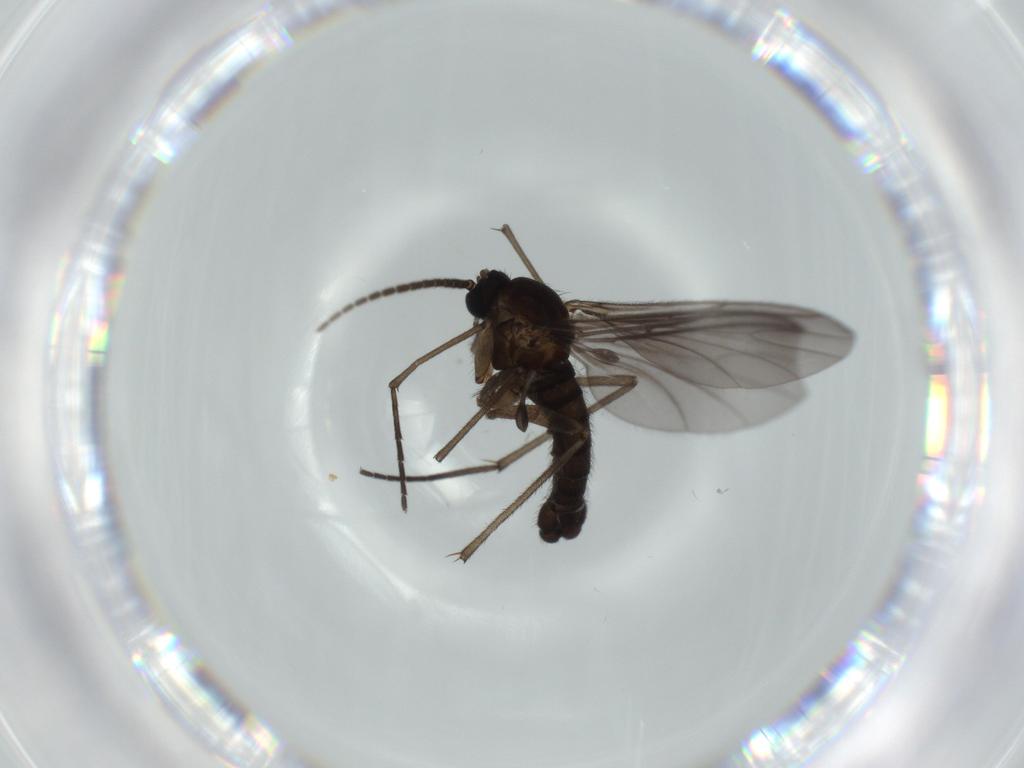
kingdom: Animalia
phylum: Arthropoda
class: Insecta
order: Diptera
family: Sciaridae
